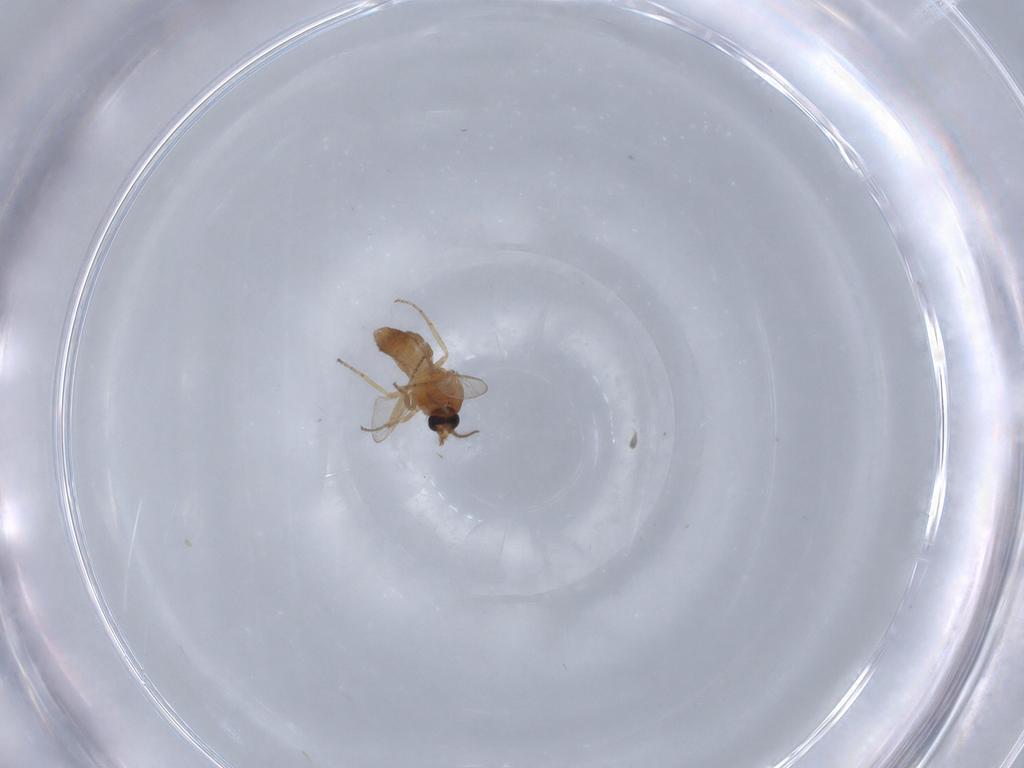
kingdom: Animalia
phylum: Arthropoda
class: Insecta
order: Diptera
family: Ceratopogonidae
